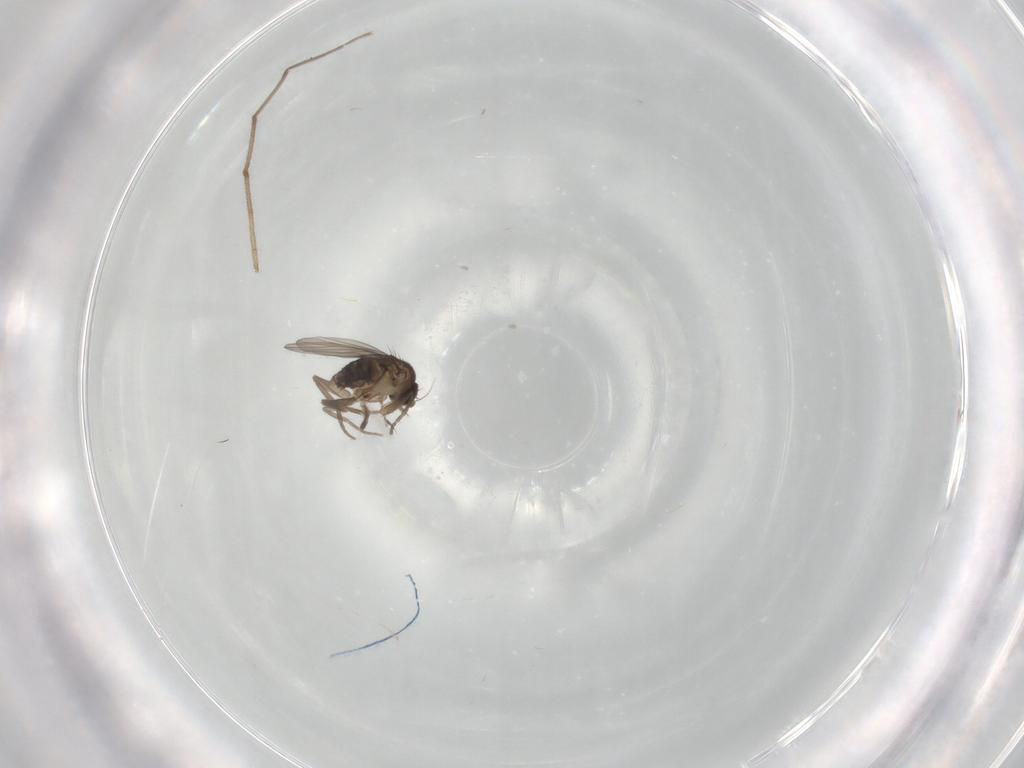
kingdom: Animalia
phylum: Arthropoda
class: Insecta
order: Diptera
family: Cecidomyiidae
